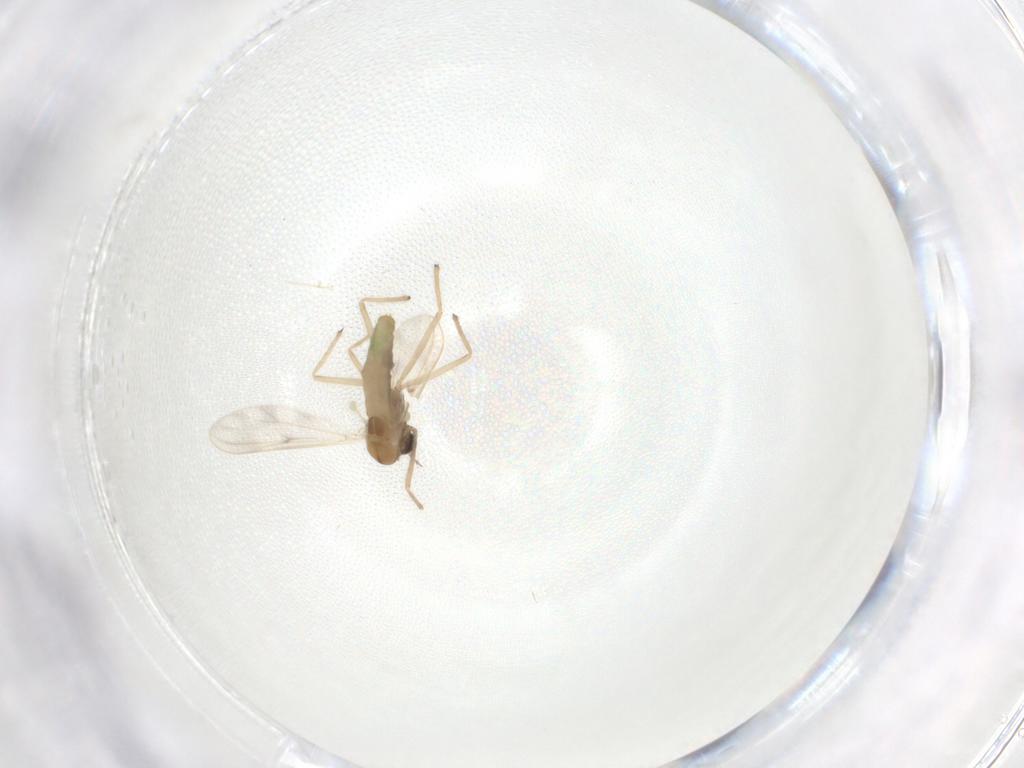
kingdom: Animalia
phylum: Arthropoda
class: Insecta
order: Diptera
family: Chironomidae
